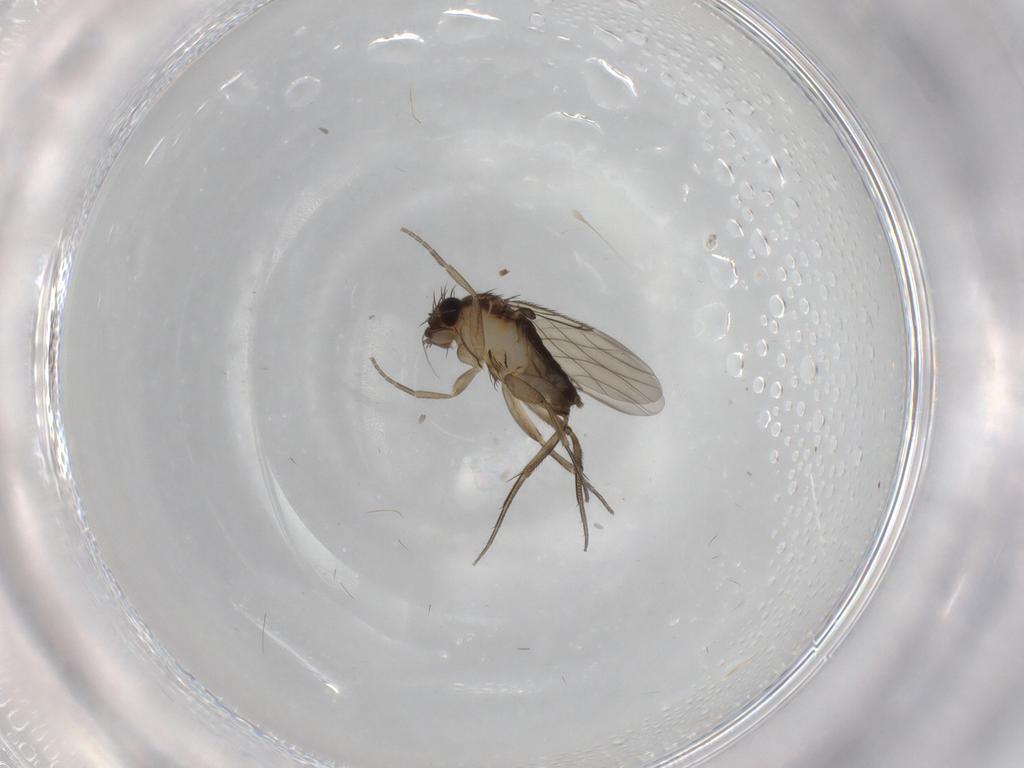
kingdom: Animalia
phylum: Arthropoda
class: Insecta
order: Diptera
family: Phoridae
